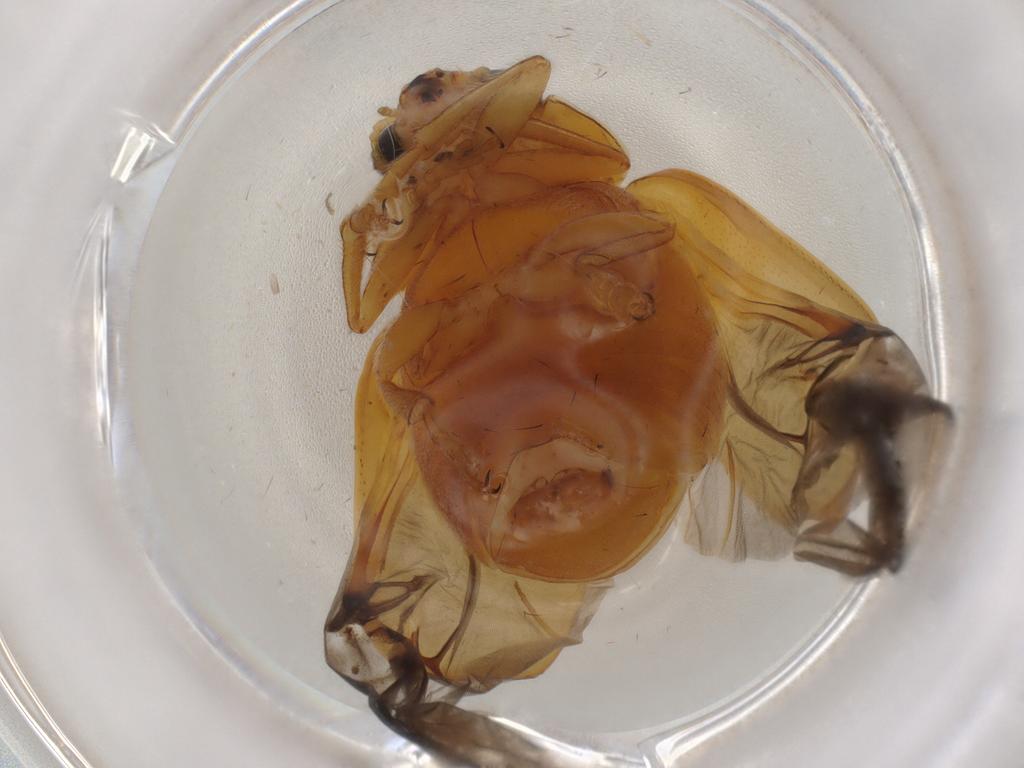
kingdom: Animalia
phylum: Arthropoda
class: Insecta
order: Coleoptera
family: Chrysomelidae
